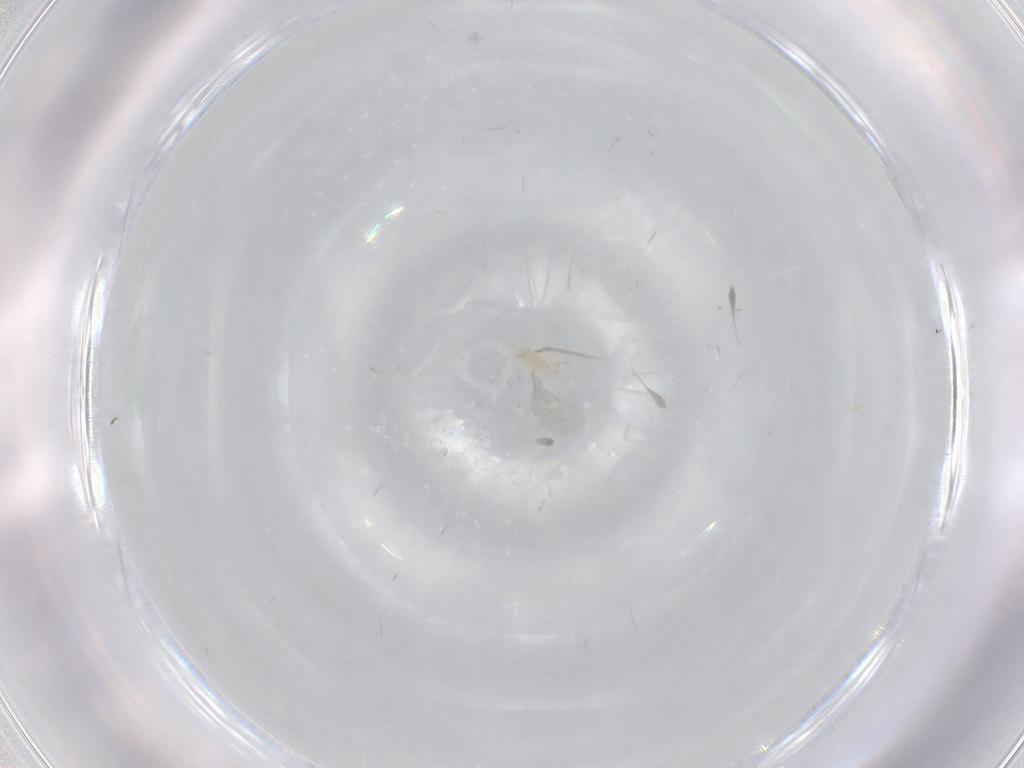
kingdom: Animalia
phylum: Arthropoda
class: Insecta
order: Diptera
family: Cecidomyiidae
